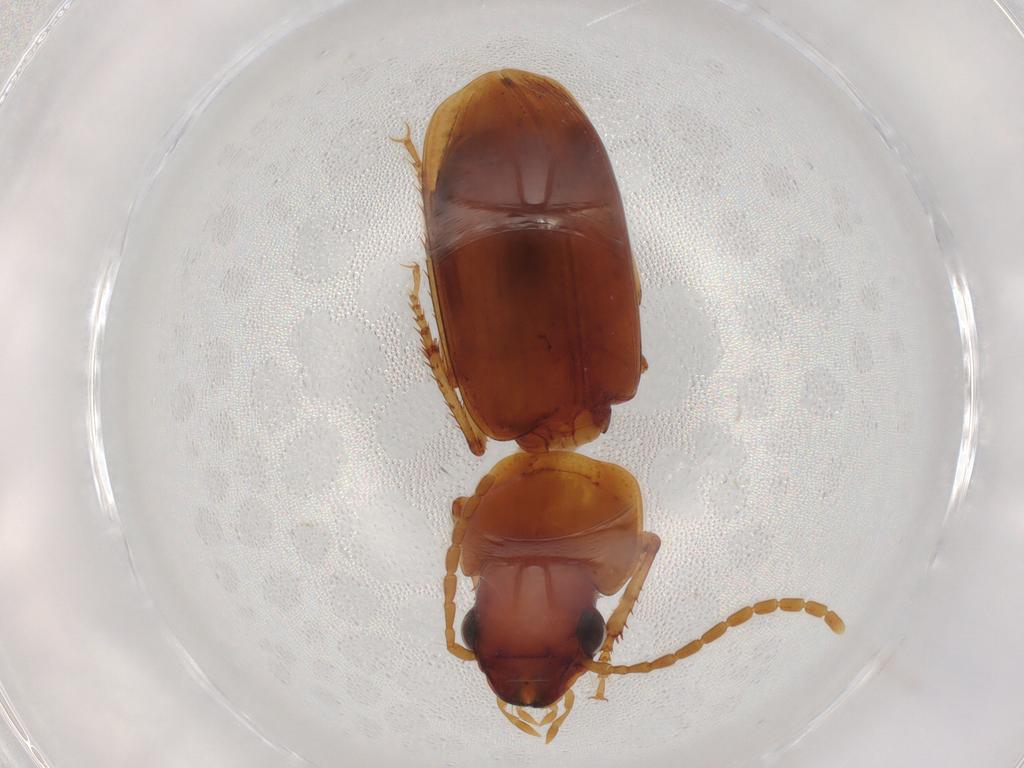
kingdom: Animalia
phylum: Arthropoda
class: Insecta
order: Coleoptera
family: Carabidae
